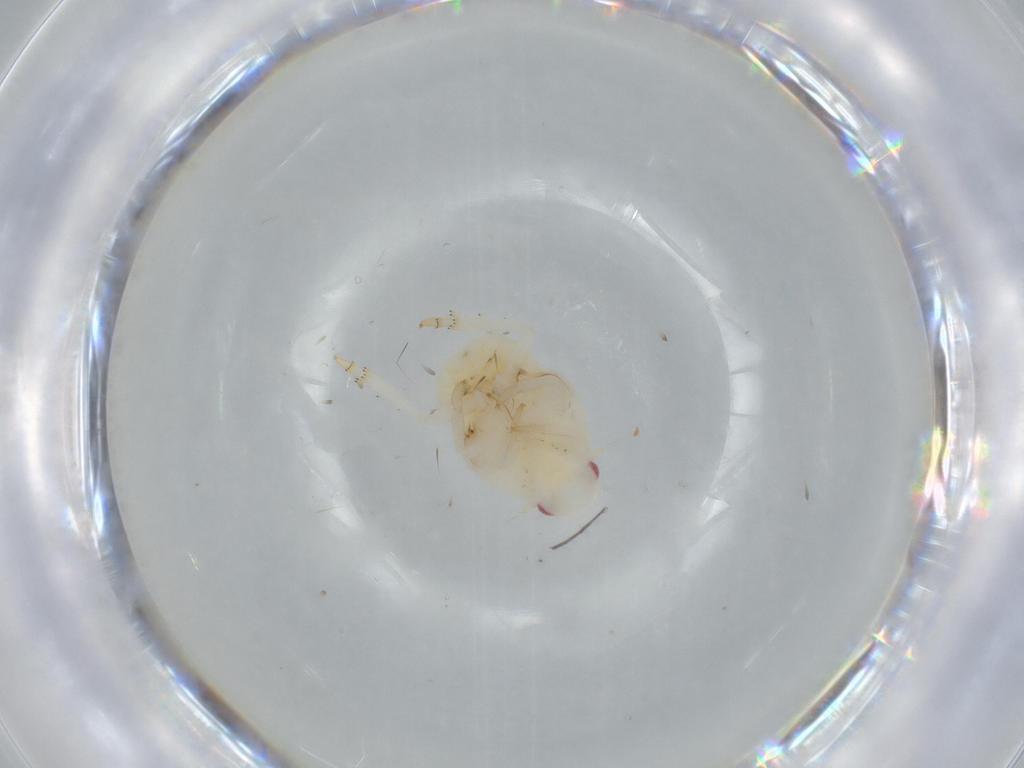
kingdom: Animalia
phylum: Arthropoda
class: Insecta
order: Hemiptera
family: Flatidae
